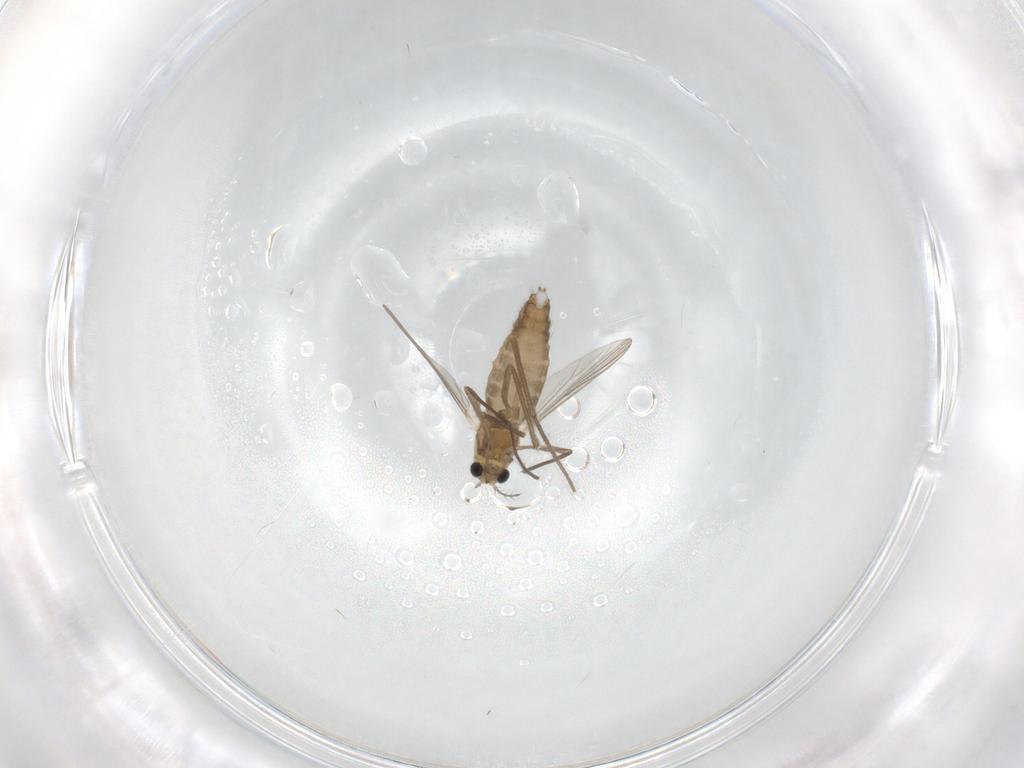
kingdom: Animalia
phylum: Arthropoda
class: Insecta
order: Diptera
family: Chironomidae
